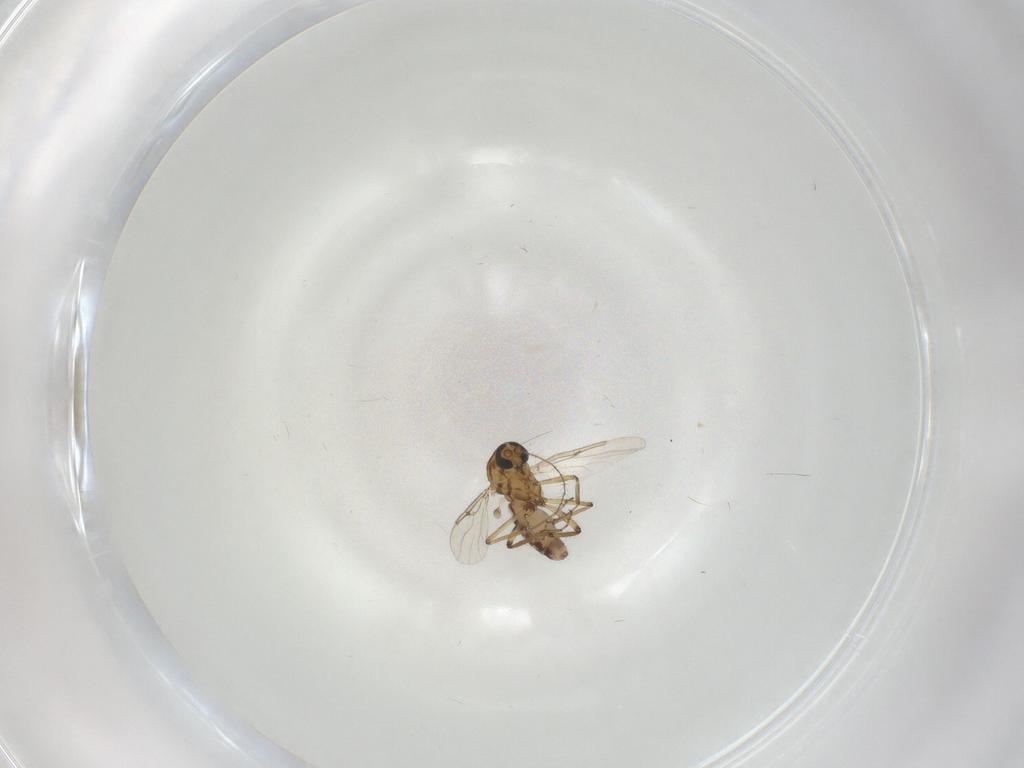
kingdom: Animalia
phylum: Arthropoda
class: Insecta
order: Diptera
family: Ceratopogonidae
